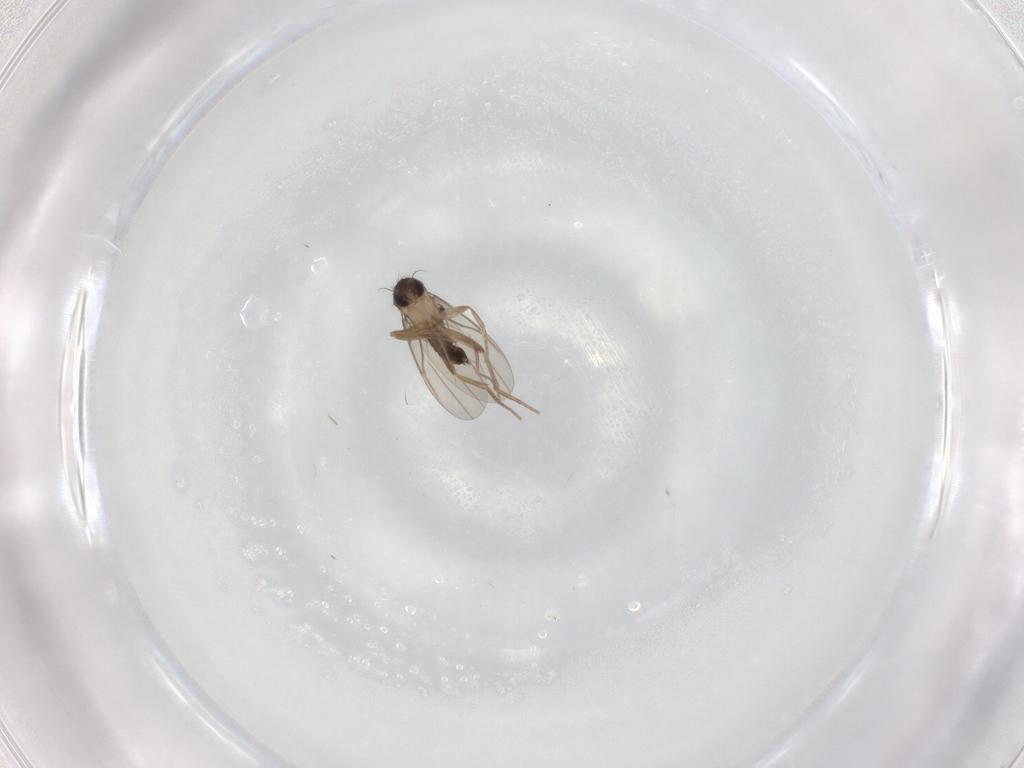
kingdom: Animalia
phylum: Arthropoda
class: Insecta
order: Diptera
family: Phoridae
